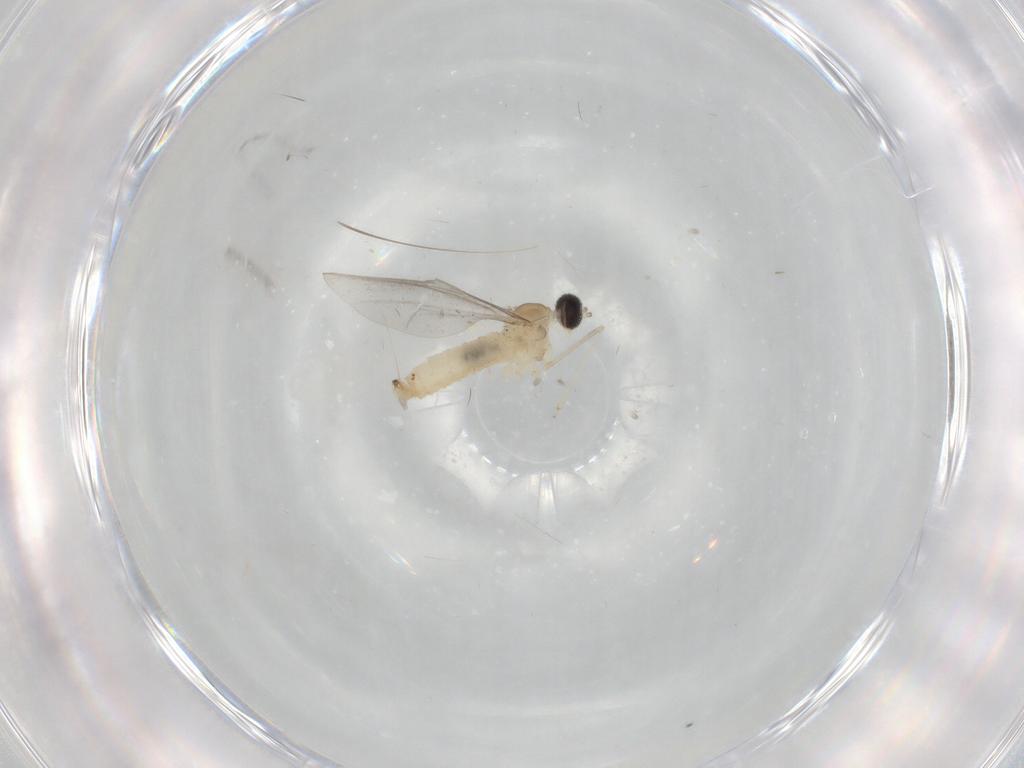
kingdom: Animalia
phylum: Arthropoda
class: Insecta
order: Diptera
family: Cecidomyiidae
